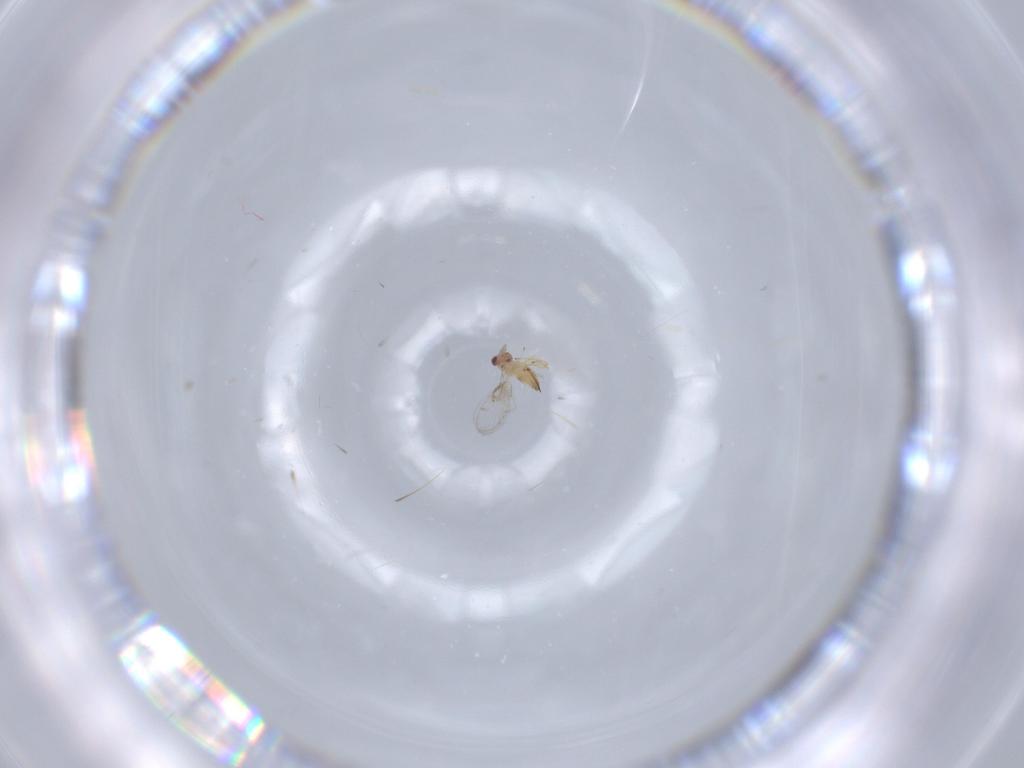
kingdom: Animalia
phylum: Arthropoda
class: Insecta
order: Hymenoptera
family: Trichogrammatidae
